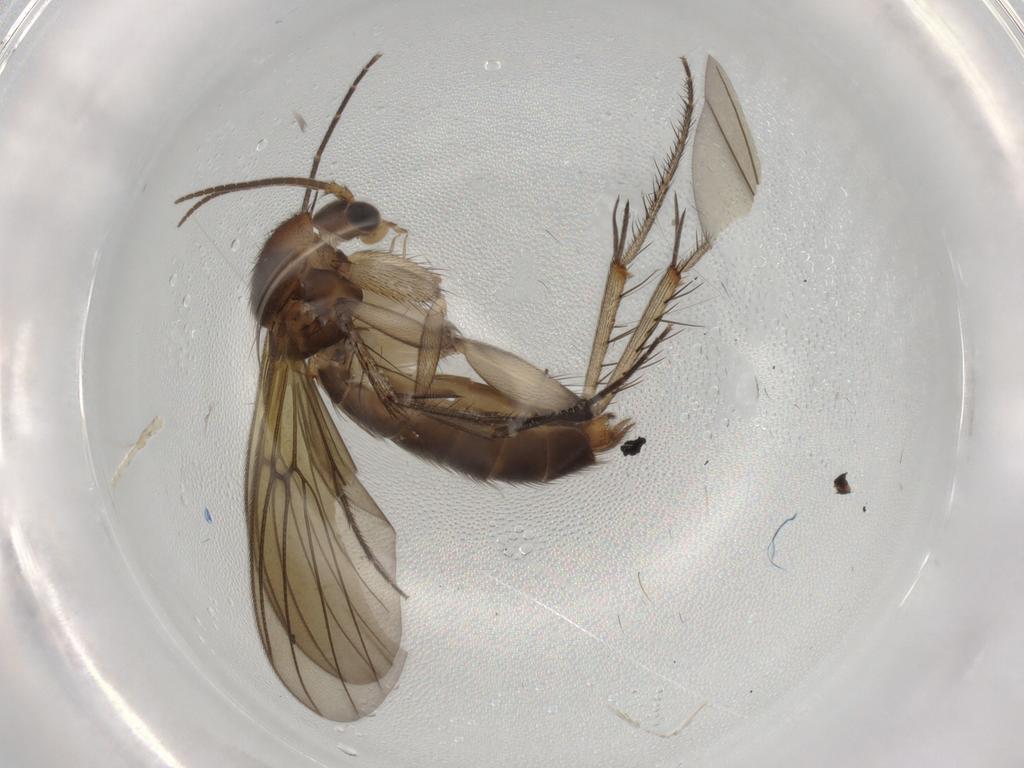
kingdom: Animalia
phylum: Arthropoda
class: Insecta
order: Diptera
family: Mycetophilidae
